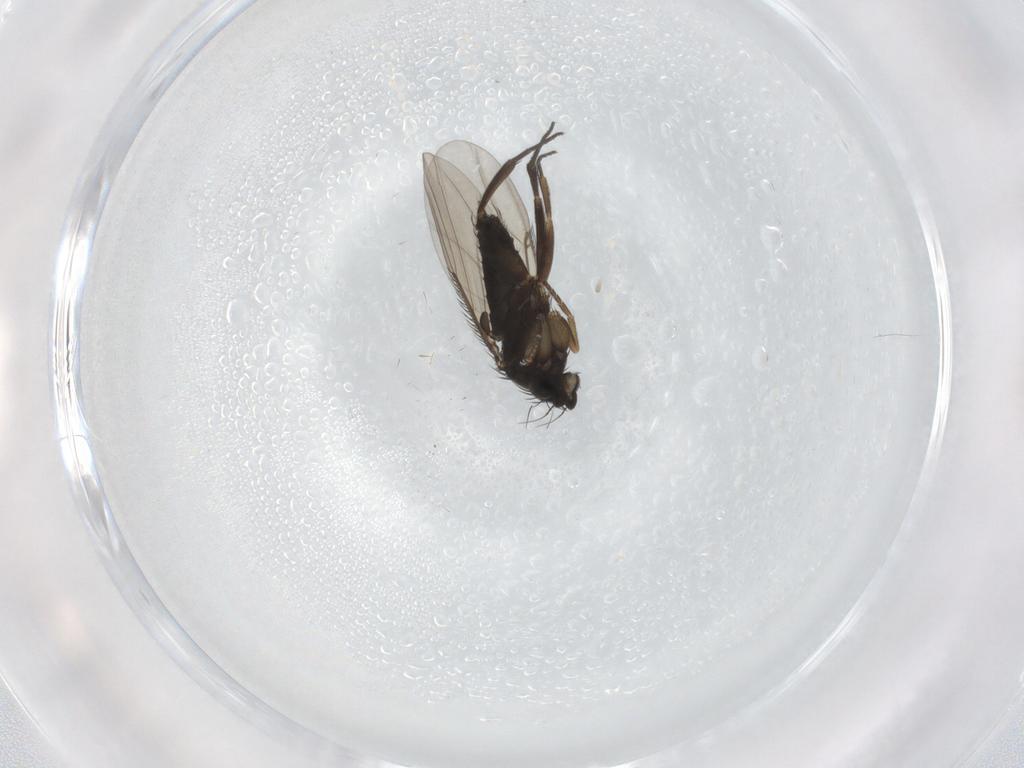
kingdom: Animalia
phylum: Arthropoda
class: Insecta
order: Diptera
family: Phoridae
